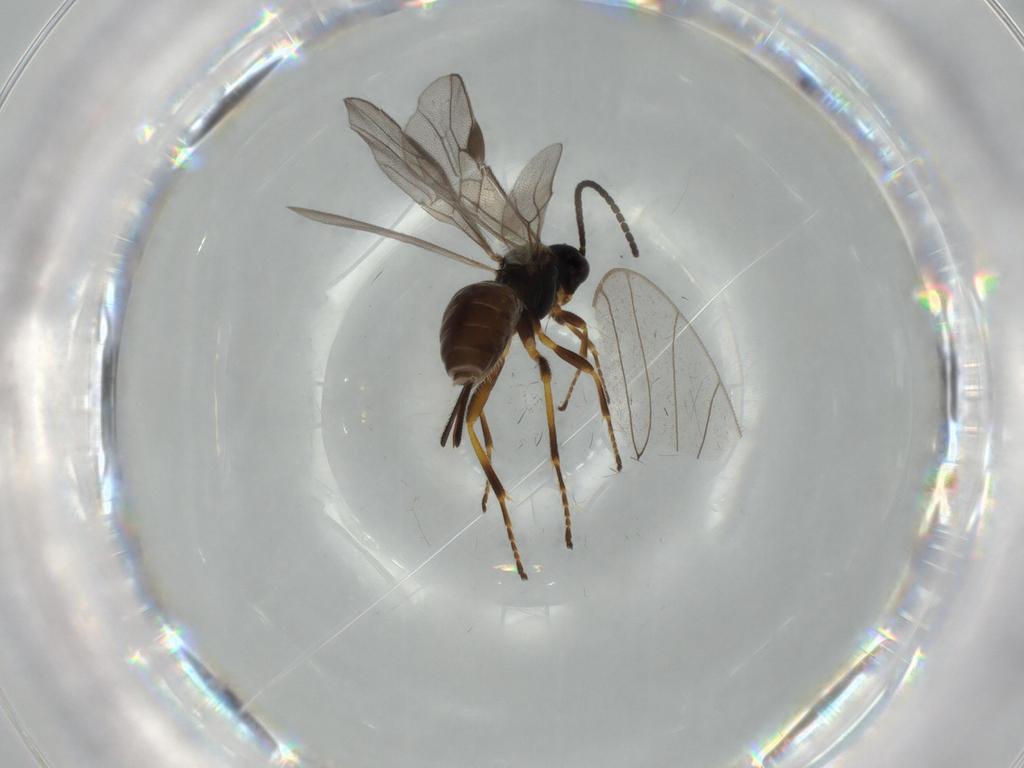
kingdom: Animalia
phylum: Arthropoda
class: Insecta
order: Hymenoptera
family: Braconidae
